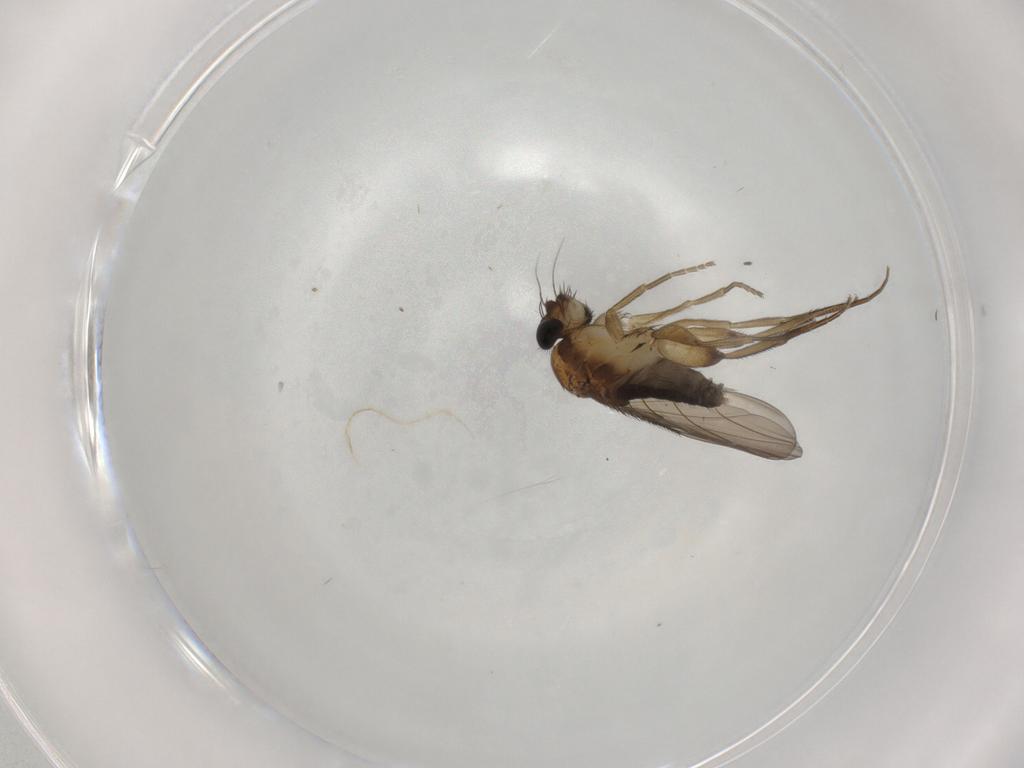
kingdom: Animalia
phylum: Arthropoda
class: Insecta
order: Diptera
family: Phoridae
